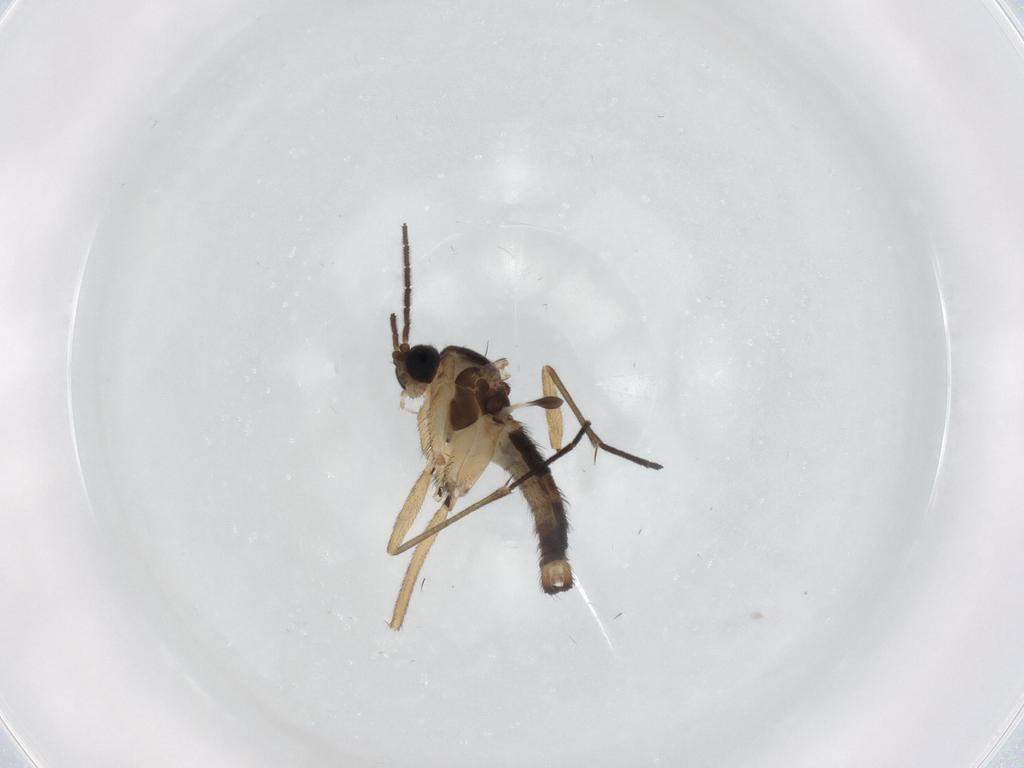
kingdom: Animalia
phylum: Arthropoda
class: Insecta
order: Diptera
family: Sciaridae
